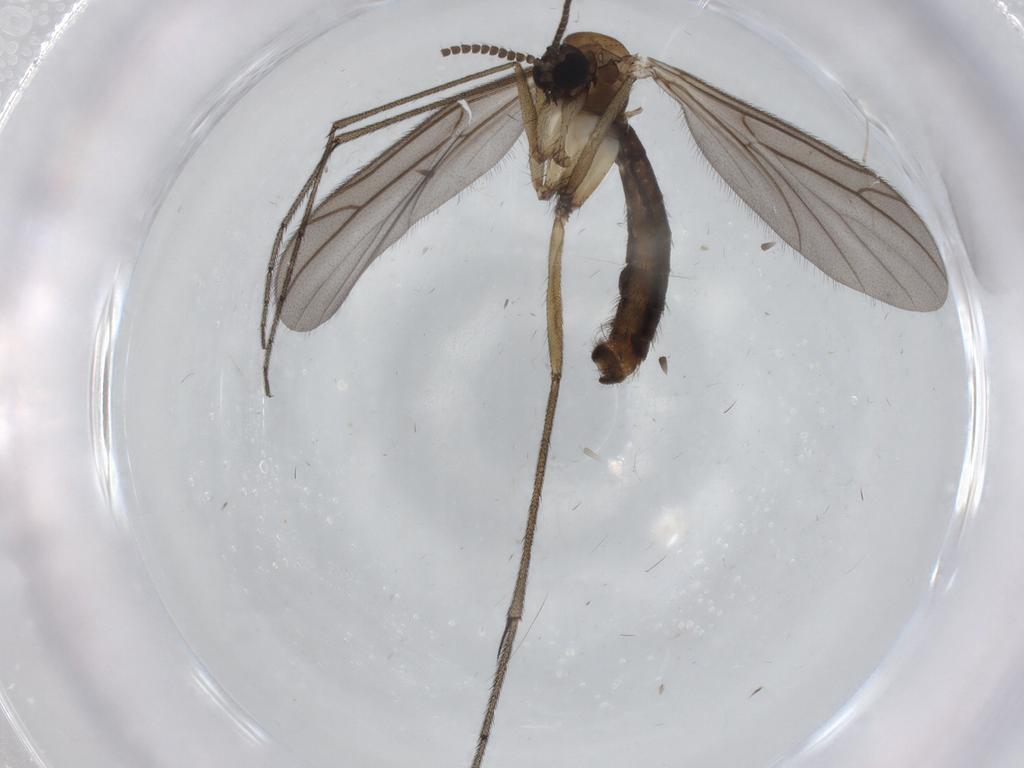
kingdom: Animalia
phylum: Arthropoda
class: Insecta
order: Diptera
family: Ditomyiidae
